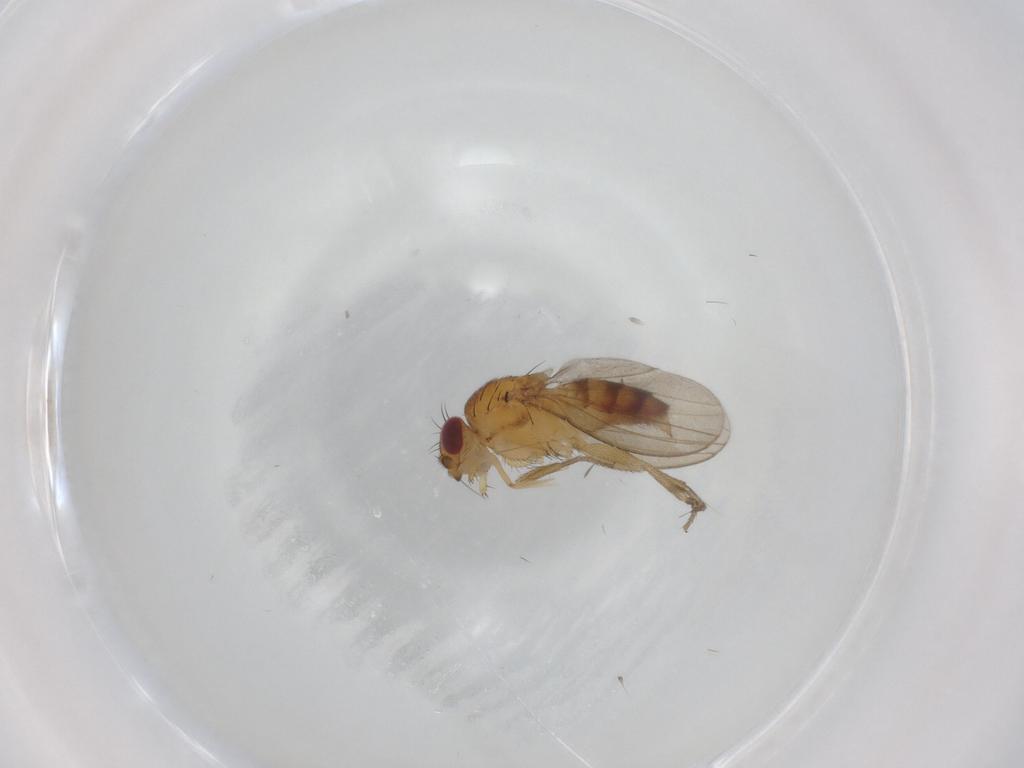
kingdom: Animalia
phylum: Arthropoda
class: Insecta
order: Diptera
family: Milichiidae
